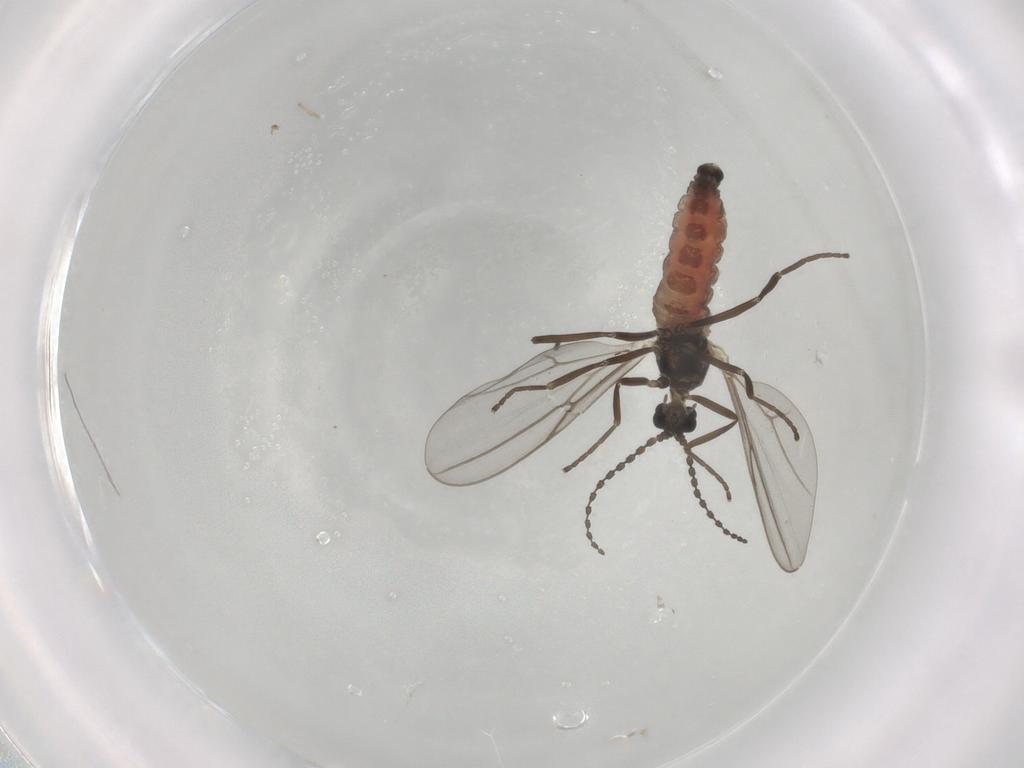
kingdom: Animalia
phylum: Arthropoda
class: Insecta
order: Diptera
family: Cecidomyiidae
